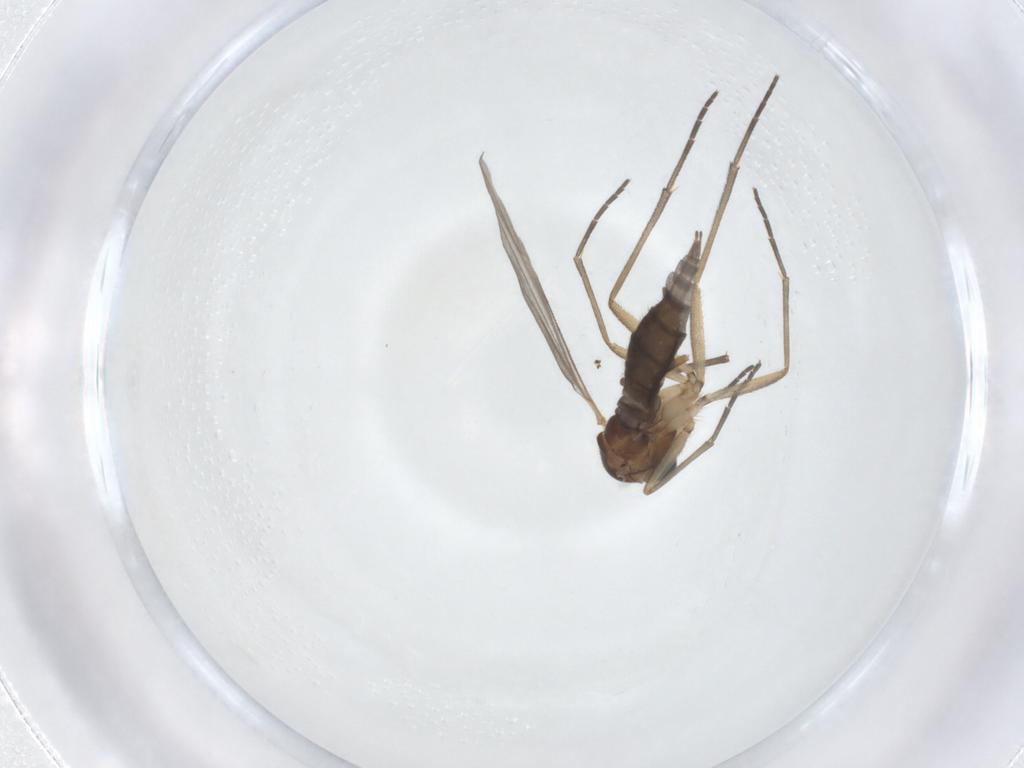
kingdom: Animalia
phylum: Arthropoda
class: Insecta
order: Diptera
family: Sciaridae
